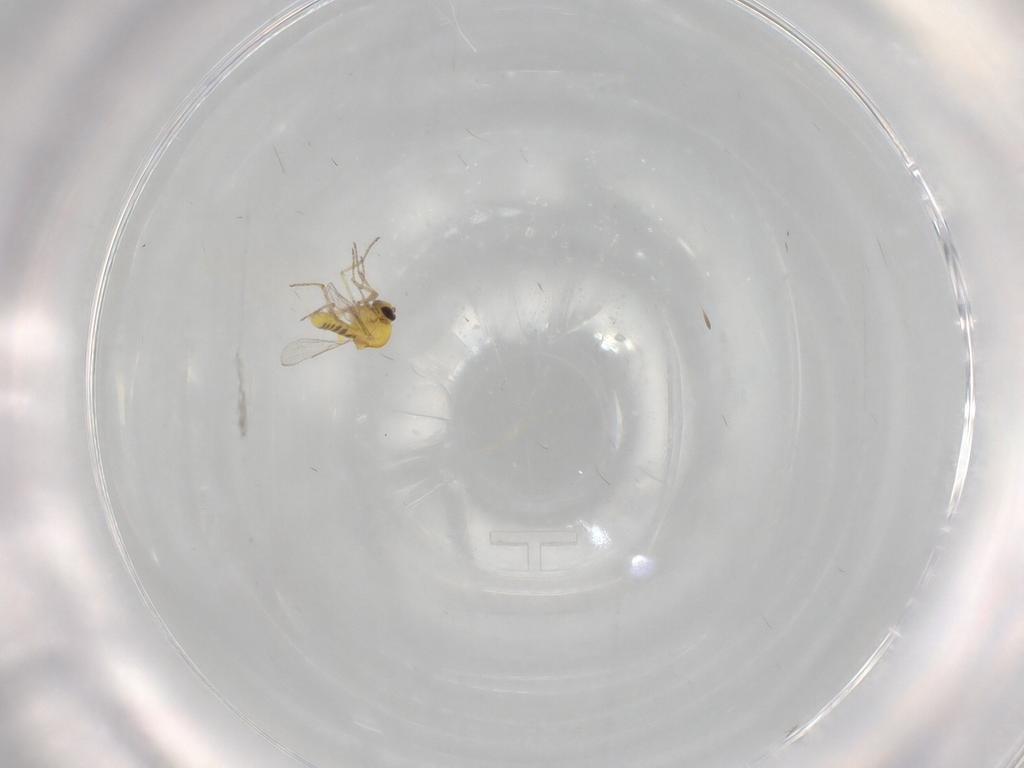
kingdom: Animalia
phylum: Arthropoda
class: Insecta
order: Diptera
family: Ceratopogonidae
